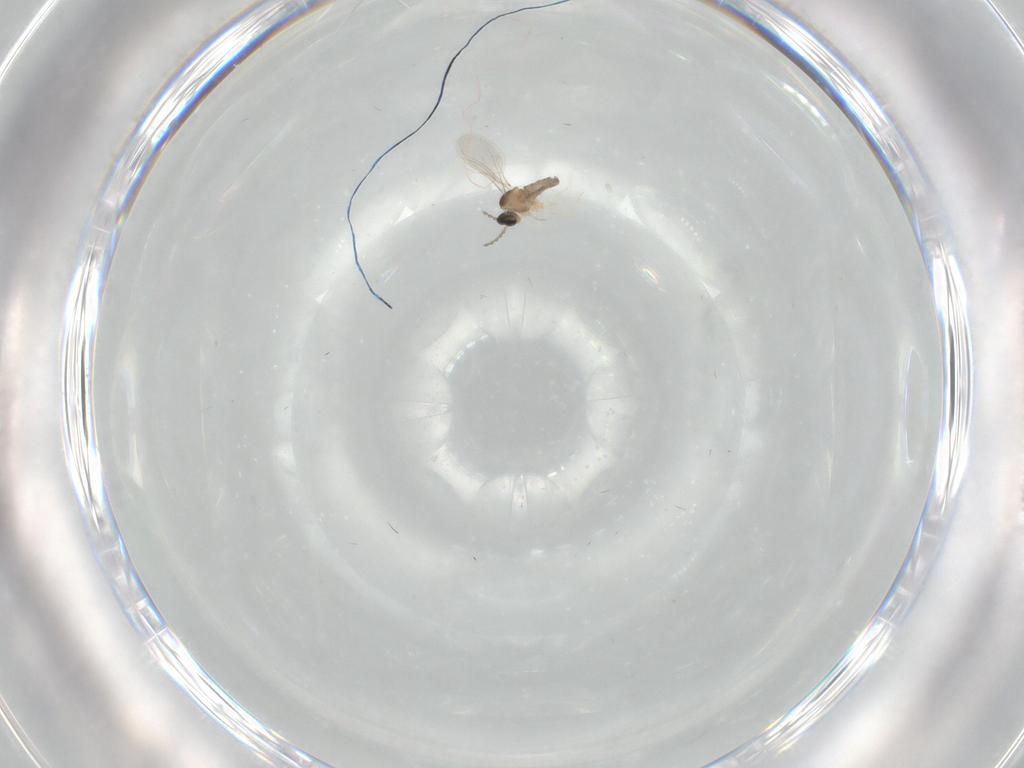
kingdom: Animalia
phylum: Arthropoda
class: Insecta
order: Diptera
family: Cecidomyiidae
